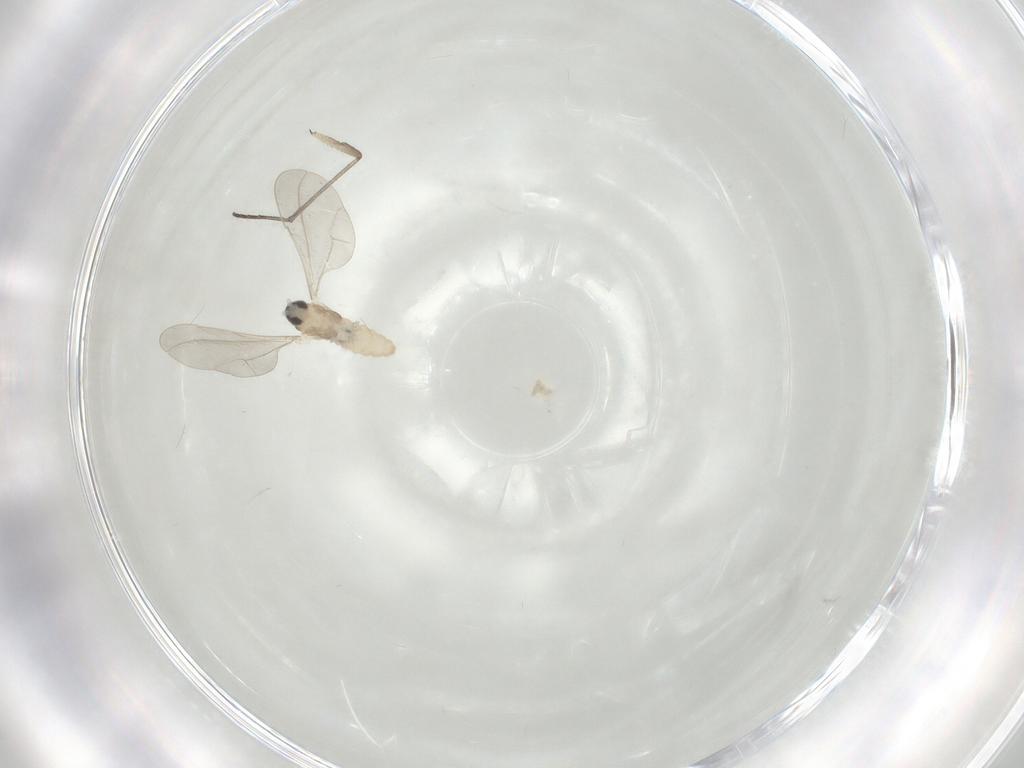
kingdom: Animalia
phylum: Arthropoda
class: Insecta
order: Diptera
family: Cecidomyiidae
